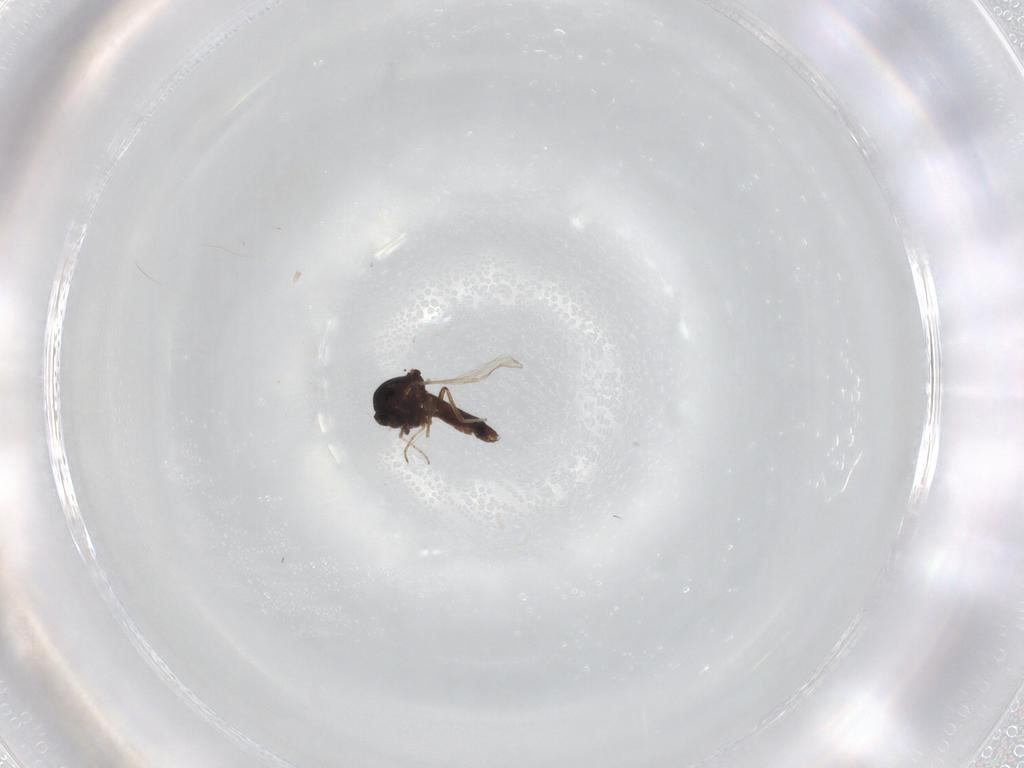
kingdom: Animalia
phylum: Arthropoda
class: Insecta
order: Diptera
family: Ceratopogonidae
